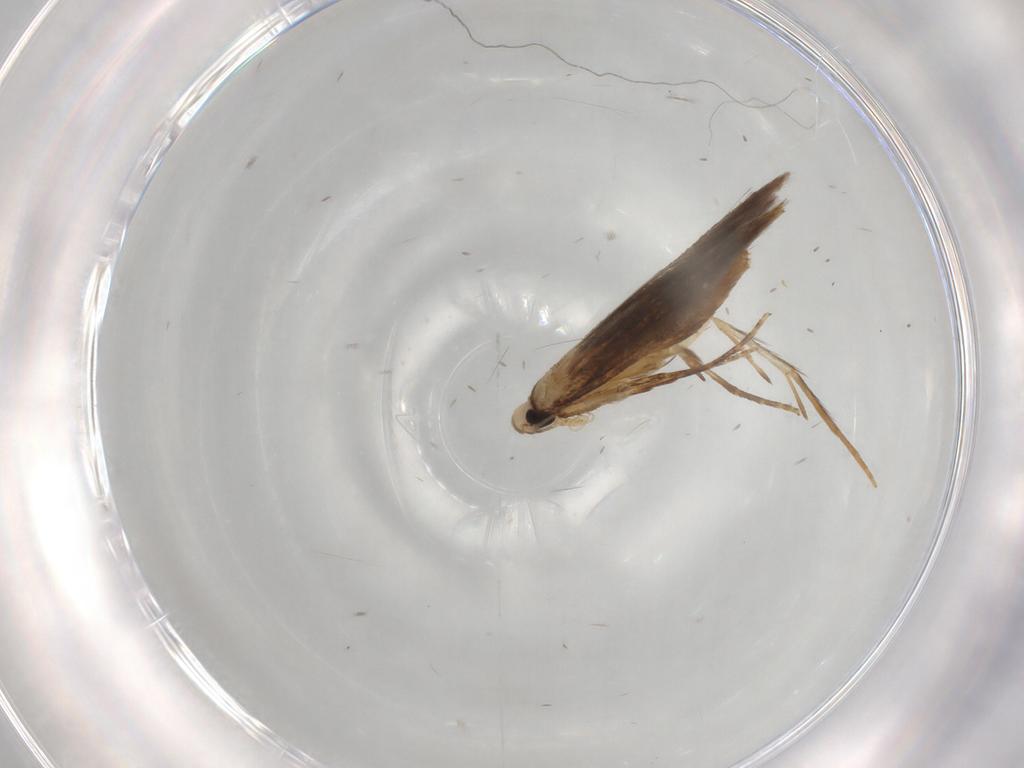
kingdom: Animalia
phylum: Arthropoda
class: Insecta
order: Lepidoptera
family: Tischeriidae
